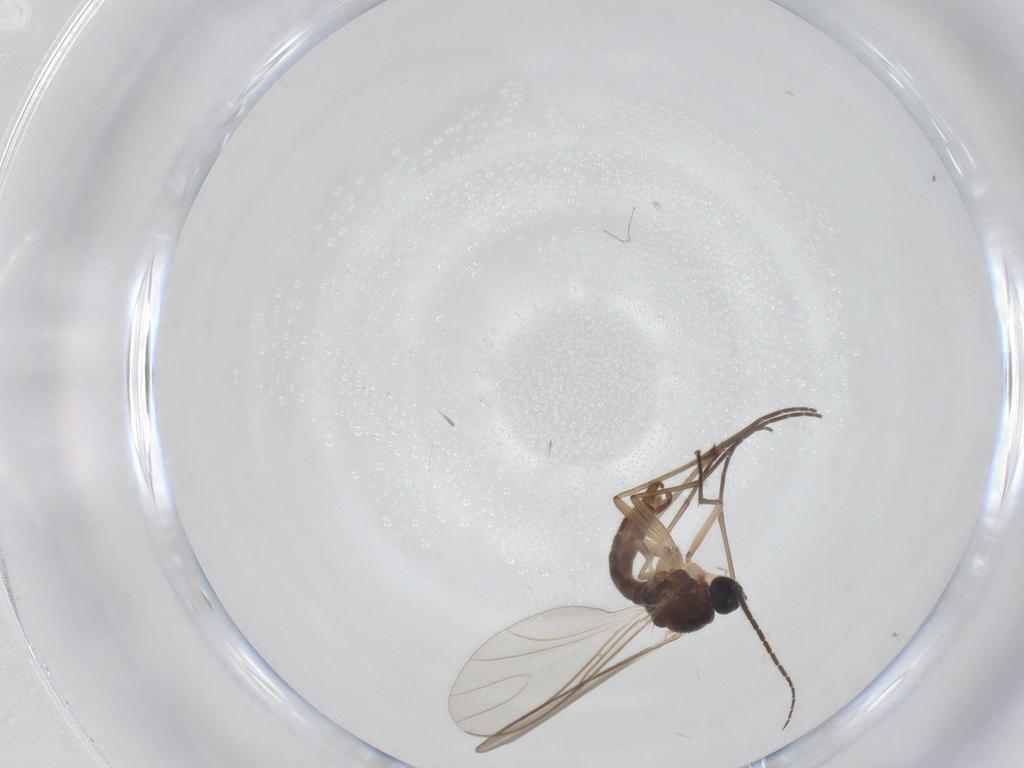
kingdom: Animalia
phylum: Arthropoda
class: Insecta
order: Diptera
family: Sciaridae
